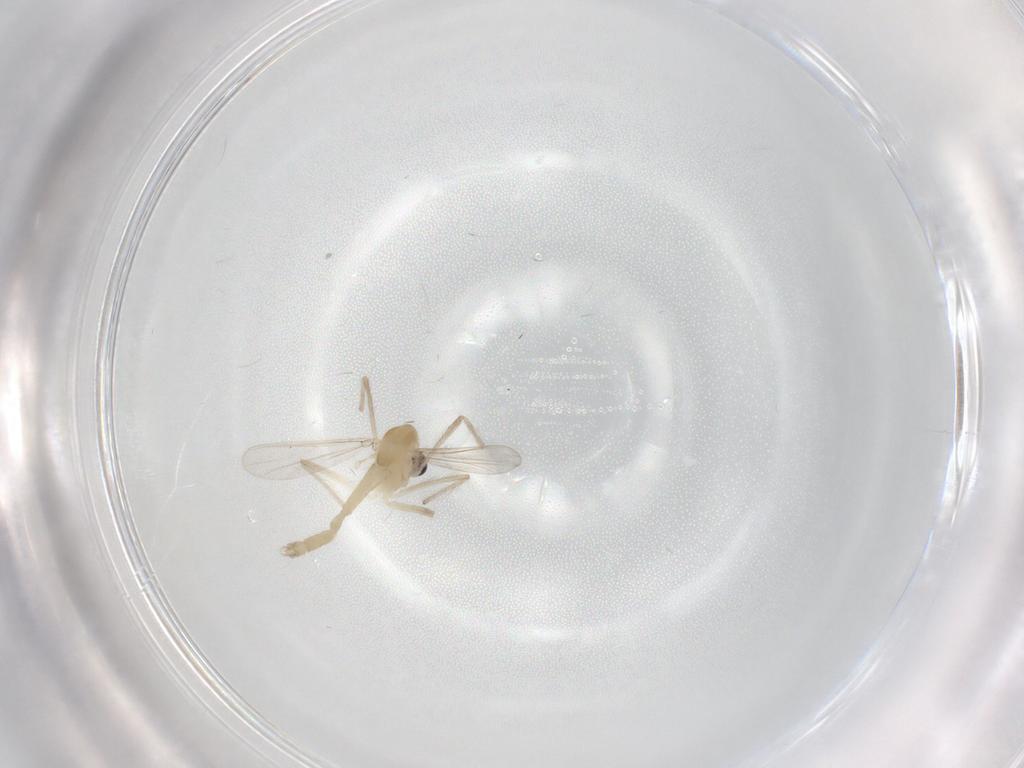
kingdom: Animalia
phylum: Arthropoda
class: Insecta
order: Diptera
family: Chironomidae
